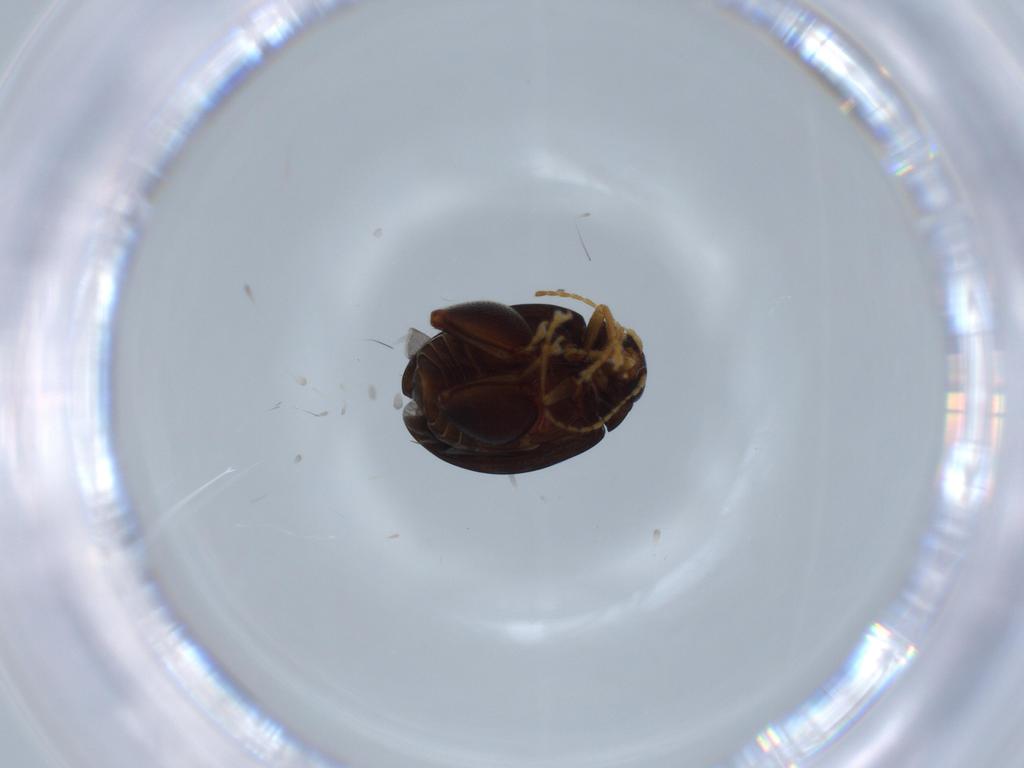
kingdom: Animalia
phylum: Arthropoda
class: Insecta
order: Coleoptera
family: Chrysomelidae
